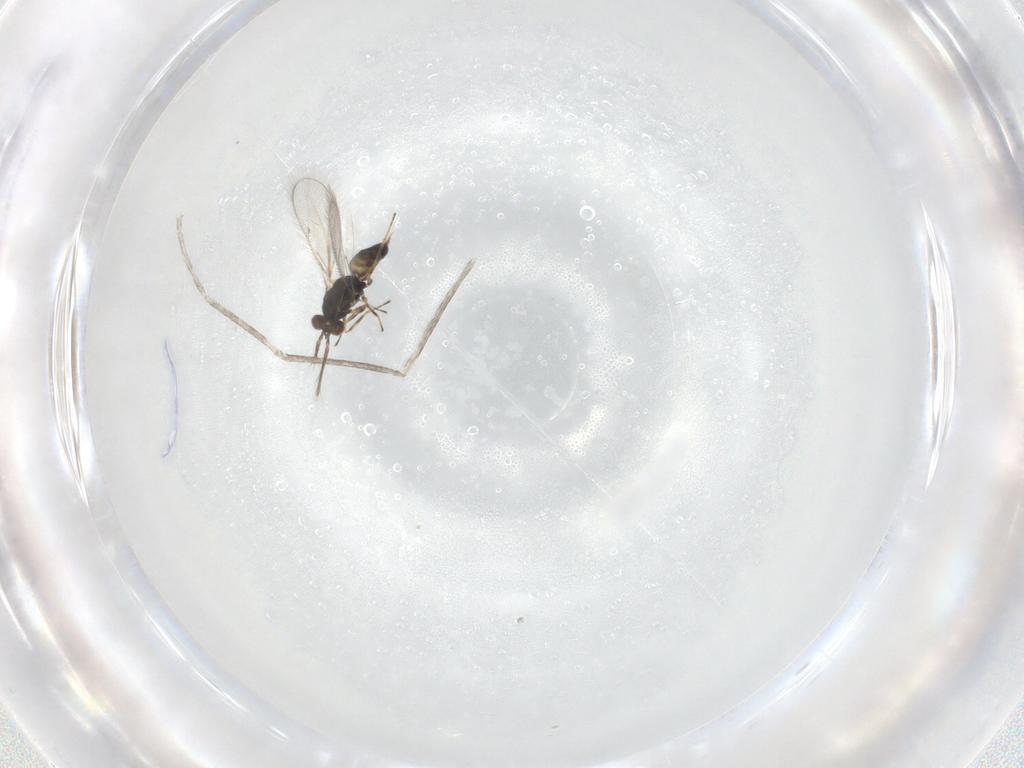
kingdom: Animalia
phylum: Arthropoda
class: Insecta
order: Hymenoptera
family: Eulophidae
